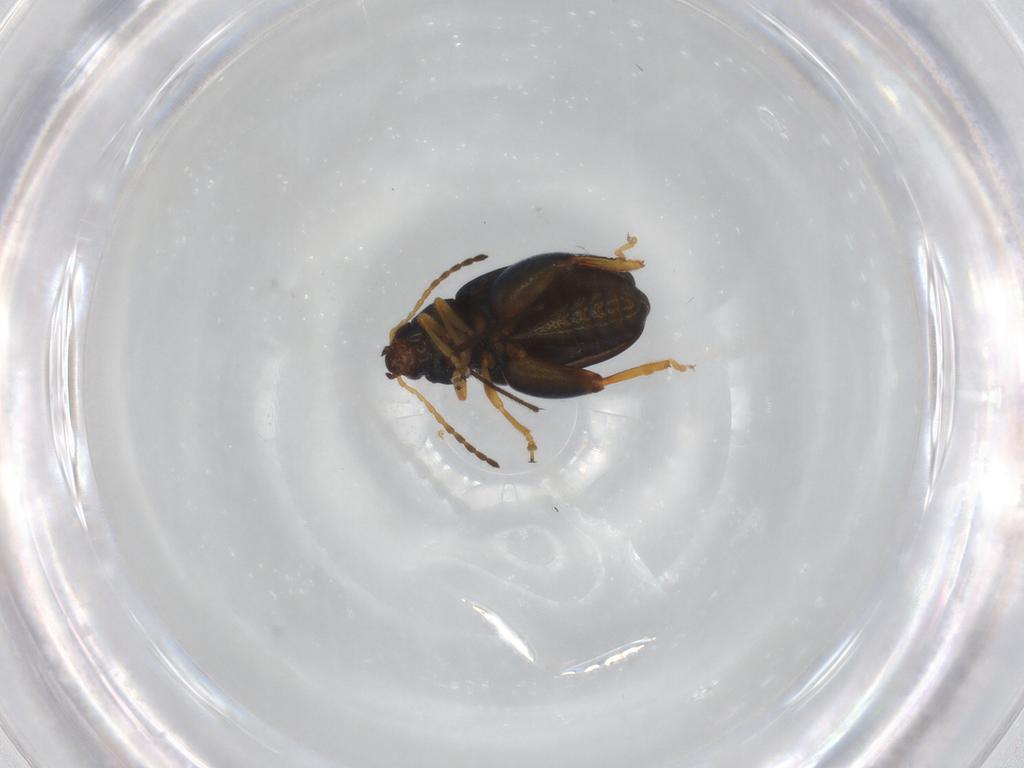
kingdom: Animalia
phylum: Arthropoda
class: Insecta
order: Coleoptera
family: Chrysomelidae
